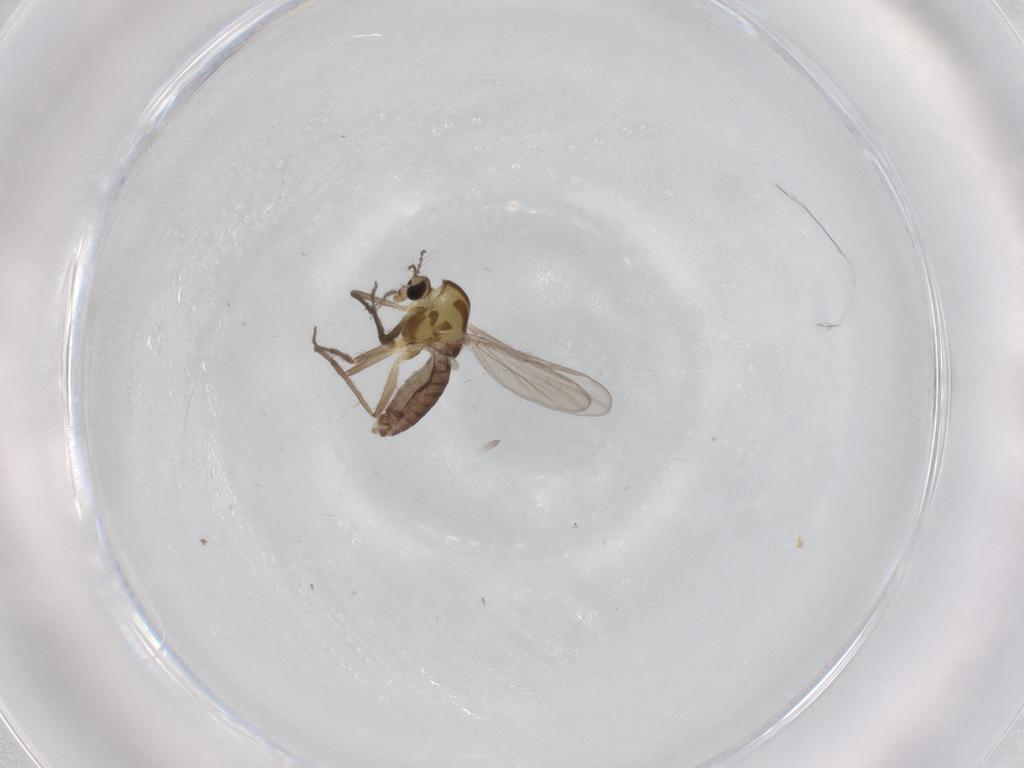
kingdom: Animalia
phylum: Arthropoda
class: Insecta
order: Diptera
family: Chironomidae
